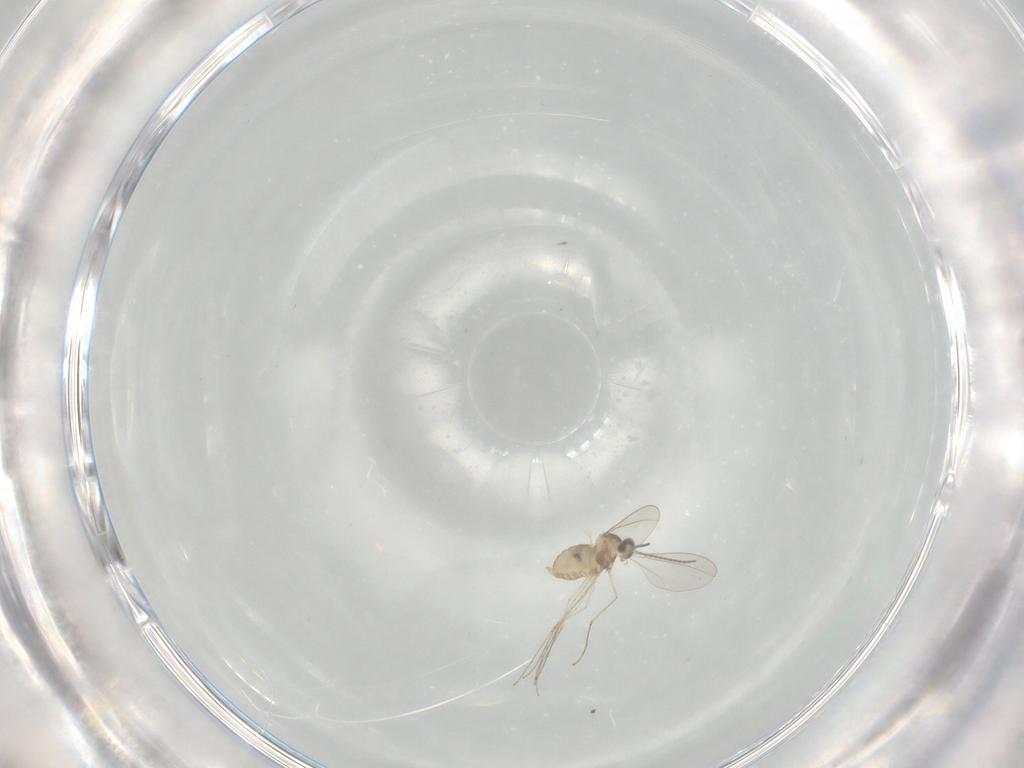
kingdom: Animalia
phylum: Arthropoda
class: Insecta
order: Diptera
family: Cecidomyiidae
